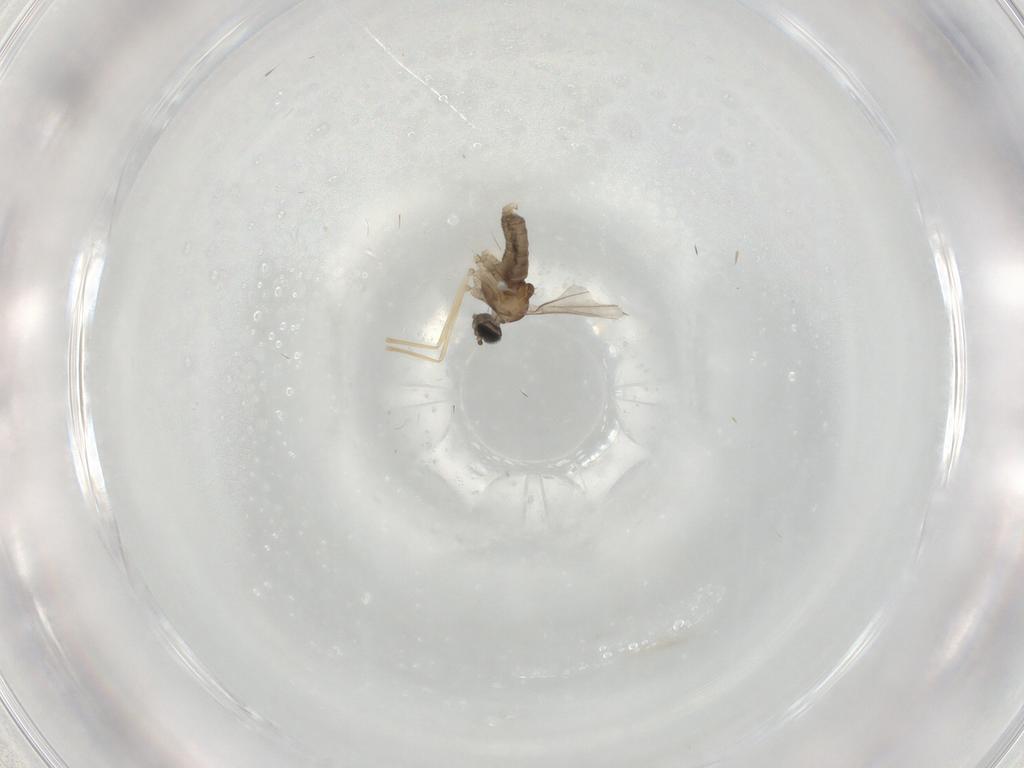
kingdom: Animalia
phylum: Arthropoda
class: Insecta
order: Diptera
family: Cecidomyiidae
